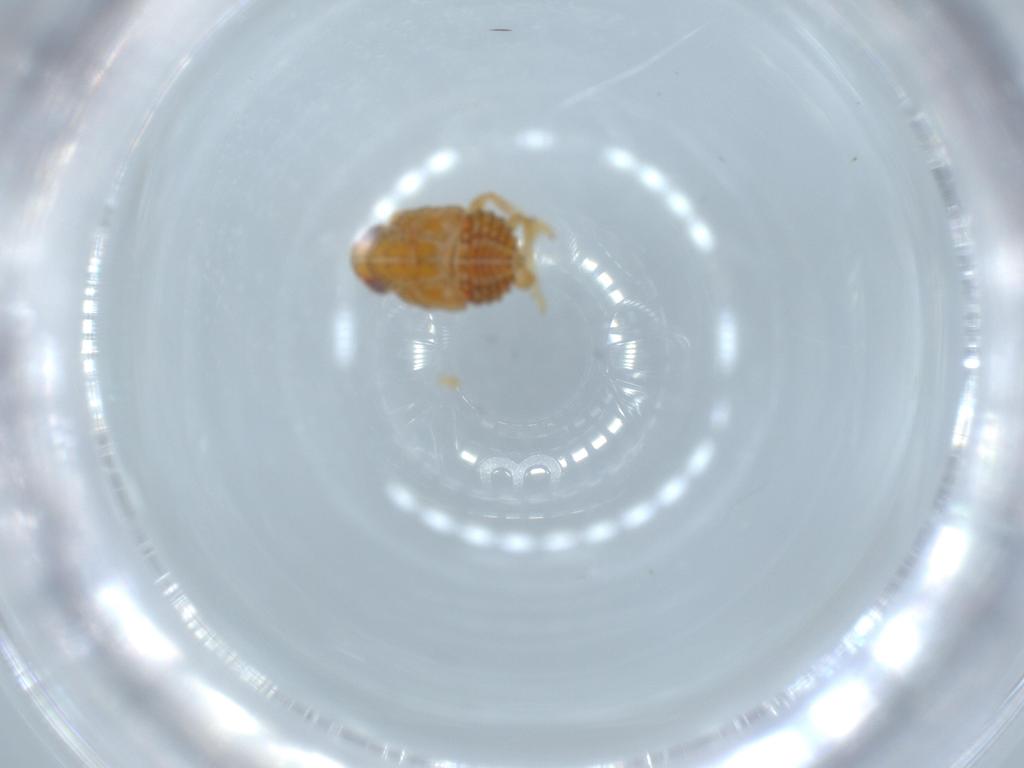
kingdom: Animalia
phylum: Arthropoda
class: Insecta
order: Hemiptera
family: Issidae
